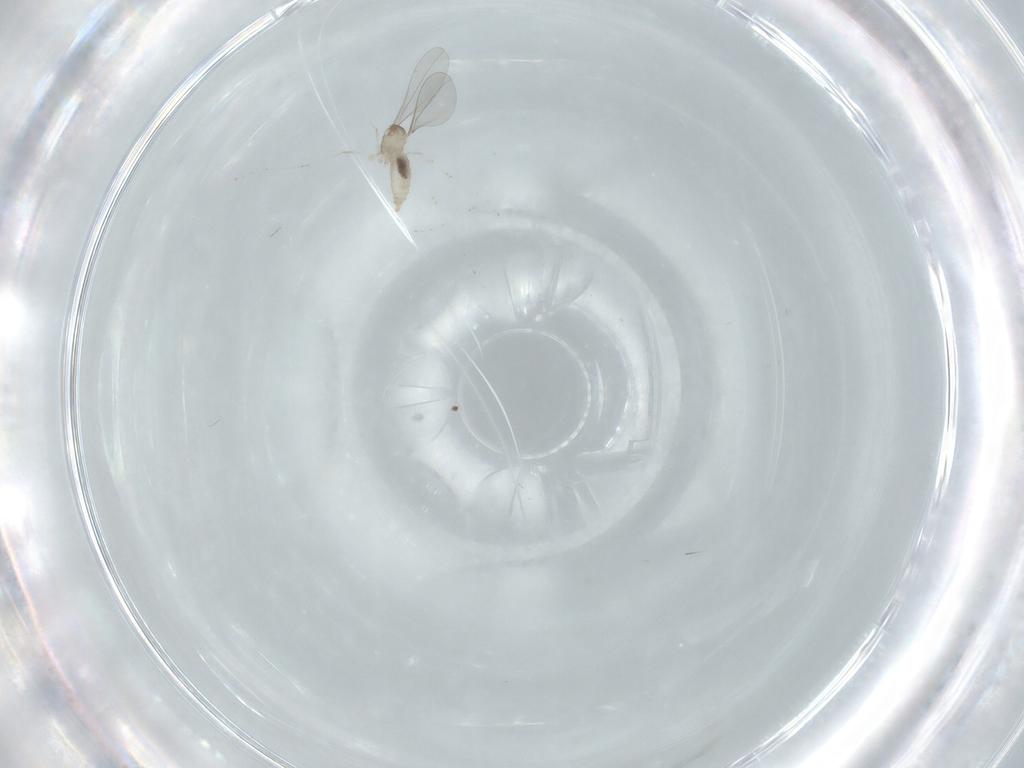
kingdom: Animalia
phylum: Arthropoda
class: Insecta
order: Diptera
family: Cecidomyiidae
